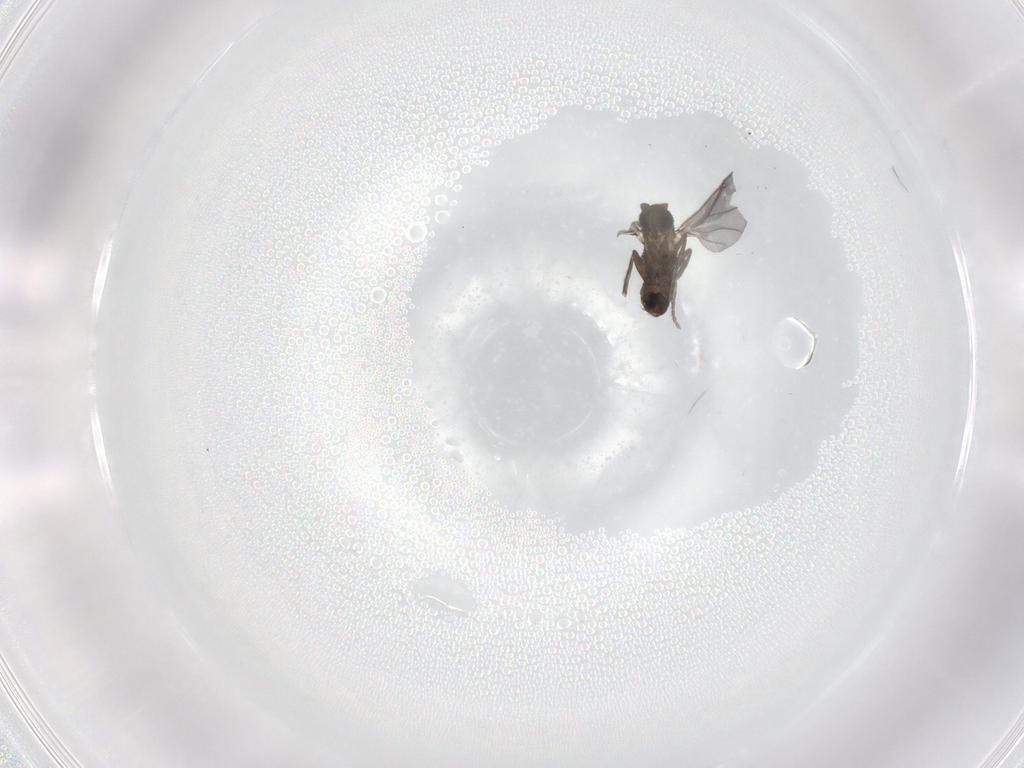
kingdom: Animalia
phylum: Arthropoda
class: Insecta
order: Diptera
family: Phoridae
